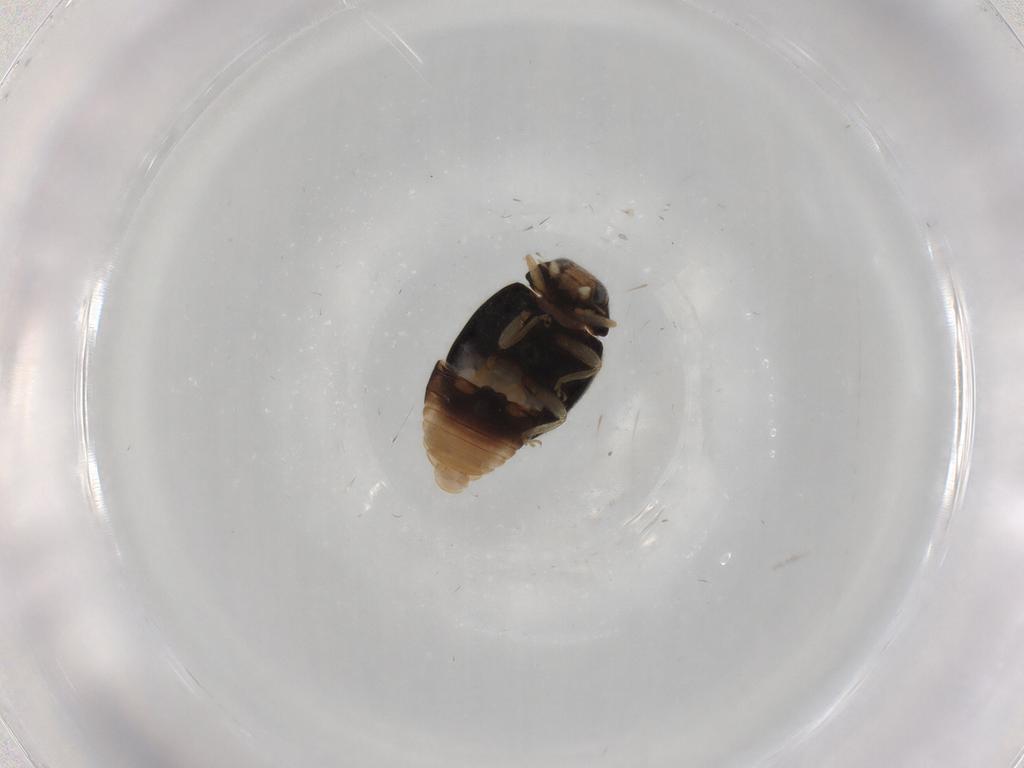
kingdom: Animalia
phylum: Arthropoda
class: Insecta
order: Coleoptera
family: Chrysomelidae
